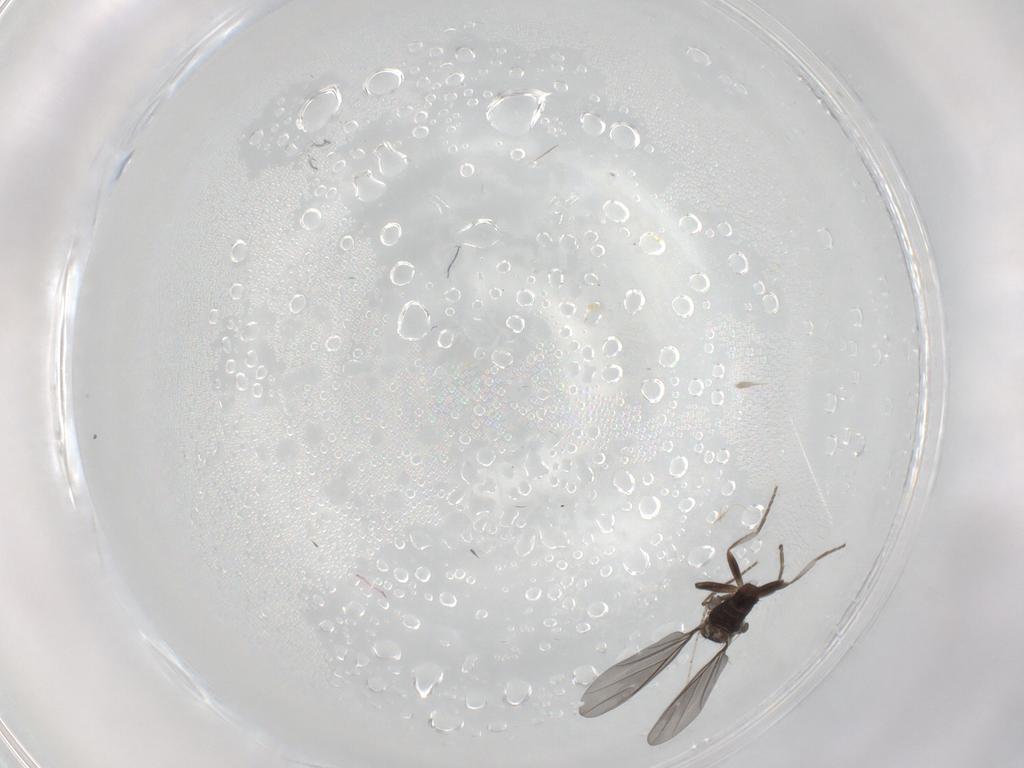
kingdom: Animalia
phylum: Arthropoda
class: Insecta
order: Diptera
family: Phoridae
